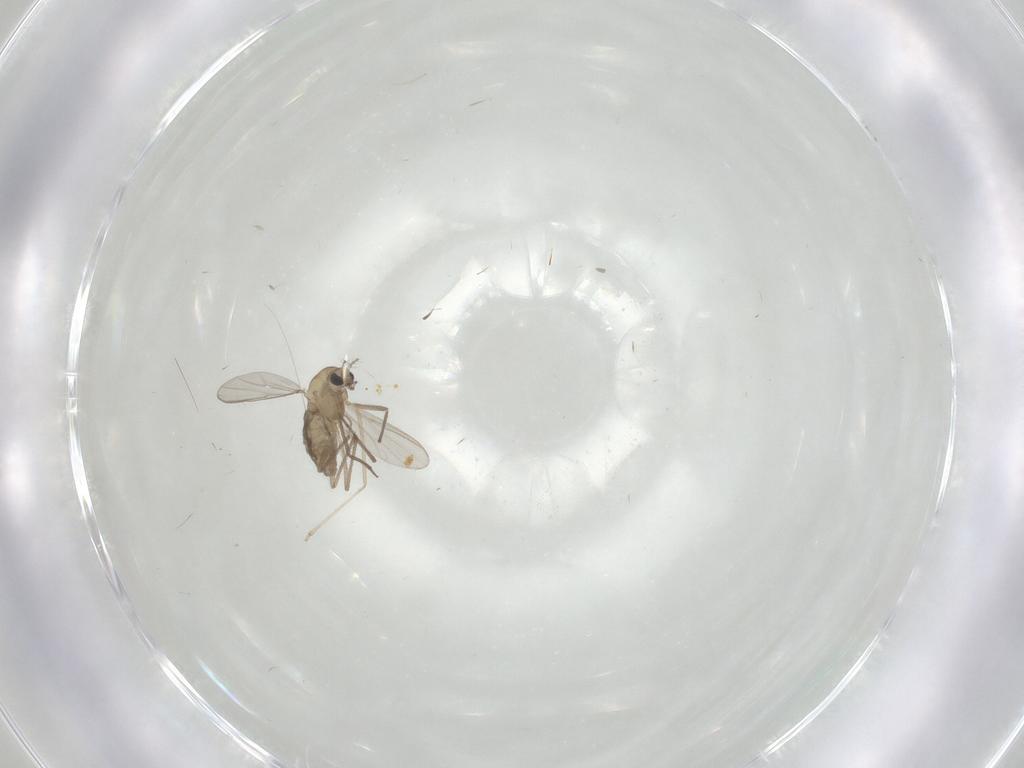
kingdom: Animalia
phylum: Arthropoda
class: Insecta
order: Diptera
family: Chironomidae
